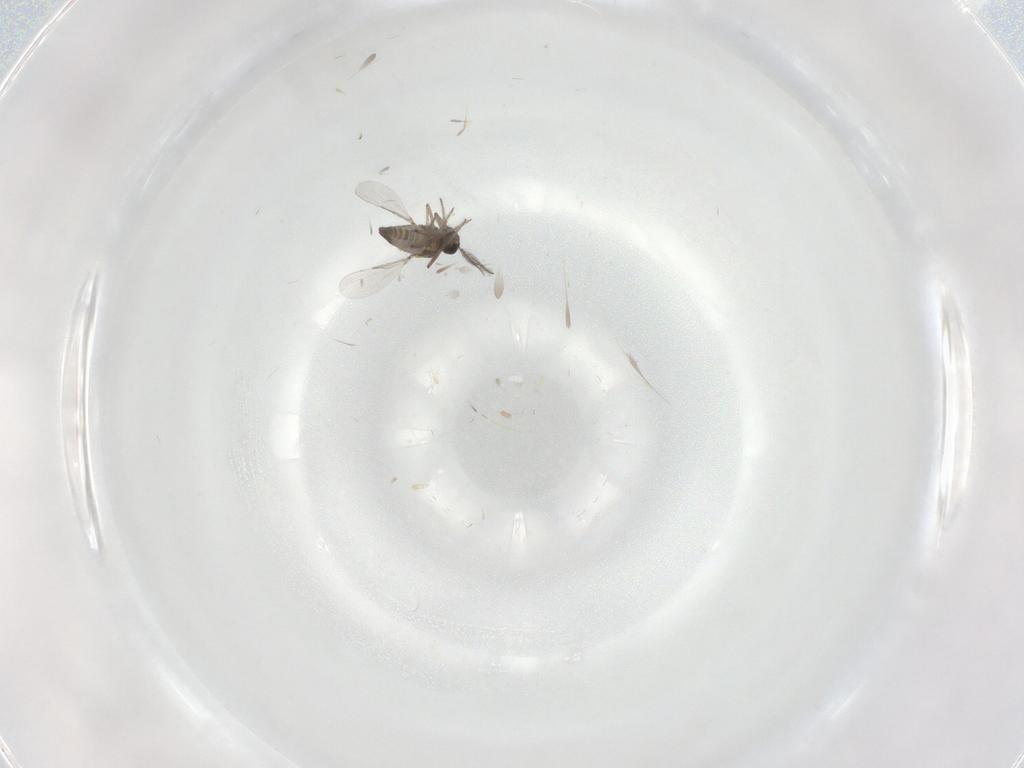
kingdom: Animalia
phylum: Arthropoda
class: Insecta
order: Diptera
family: Ceratopogonidae
